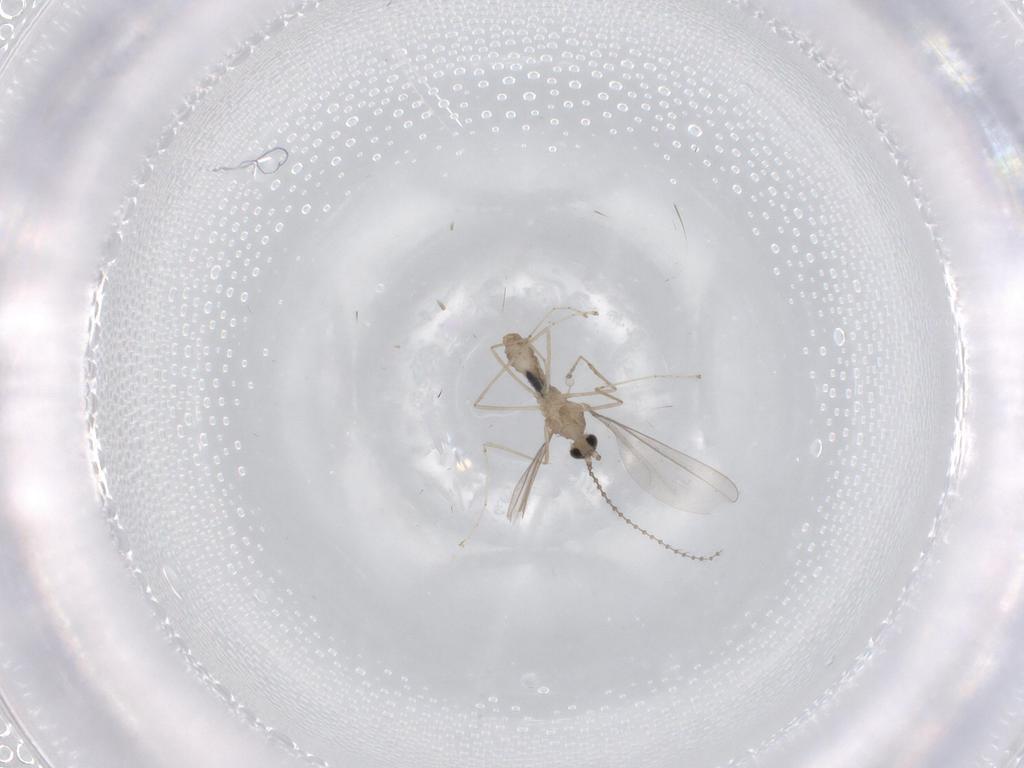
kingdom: Animalia
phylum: Arthropoda
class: Insecta
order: Diptera
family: Cecidomyiidae
